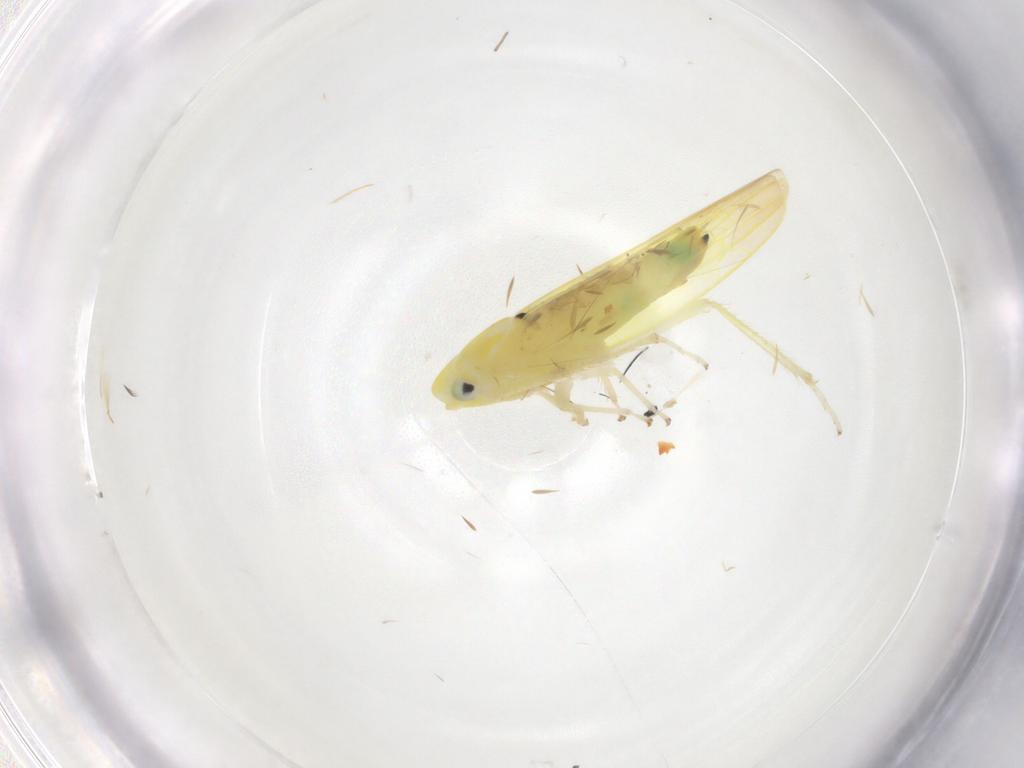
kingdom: Animalia
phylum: Arthropoda
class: Insecta
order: Hemiptera
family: Cicadellidae
